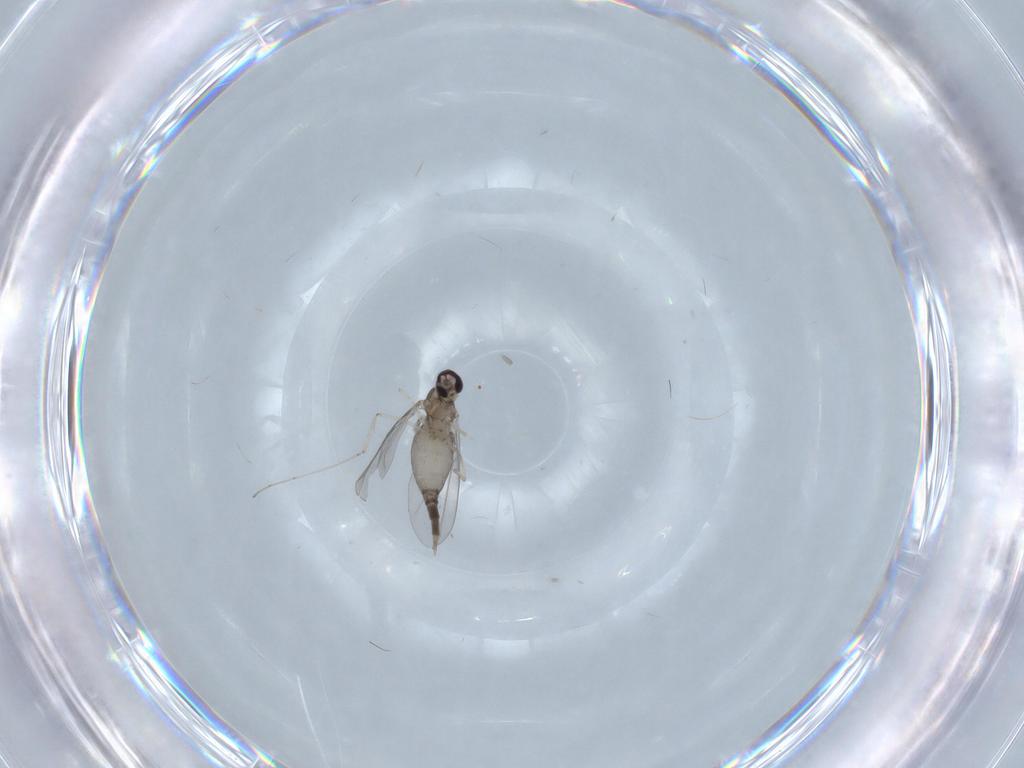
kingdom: Animalia
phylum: Arthropoda
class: Insecta
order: Diptera
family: Cecidomyiidae
